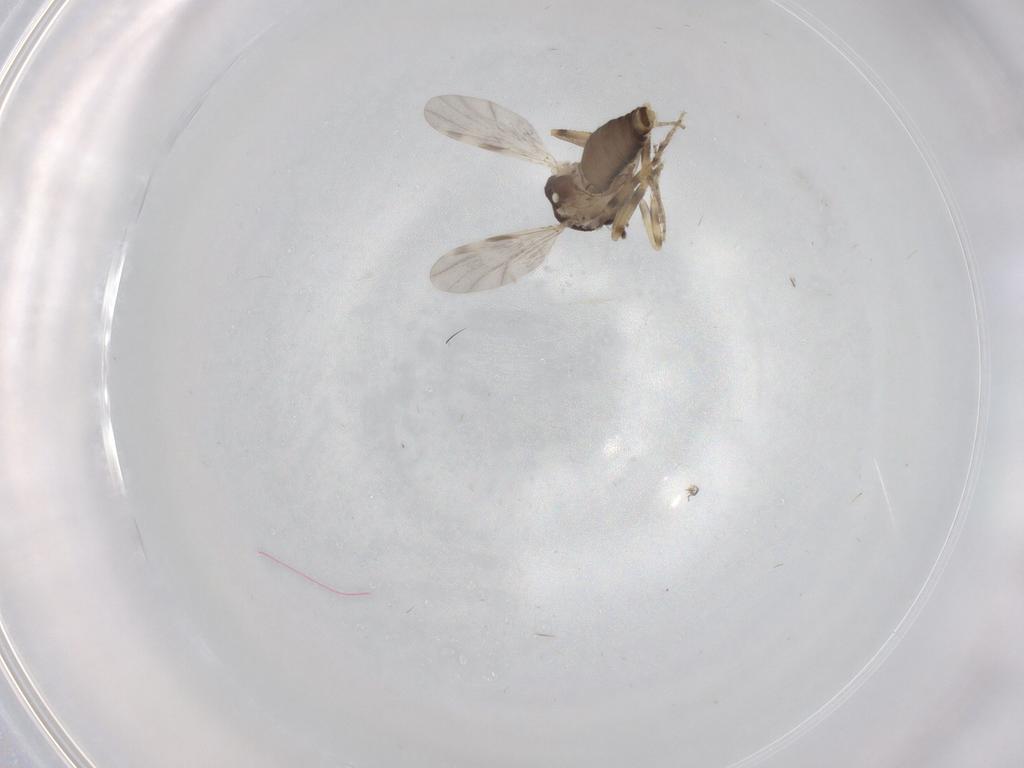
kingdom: Animalia
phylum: Arthropoda
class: Insecta
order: Diptera
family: Ceratopogonidae
